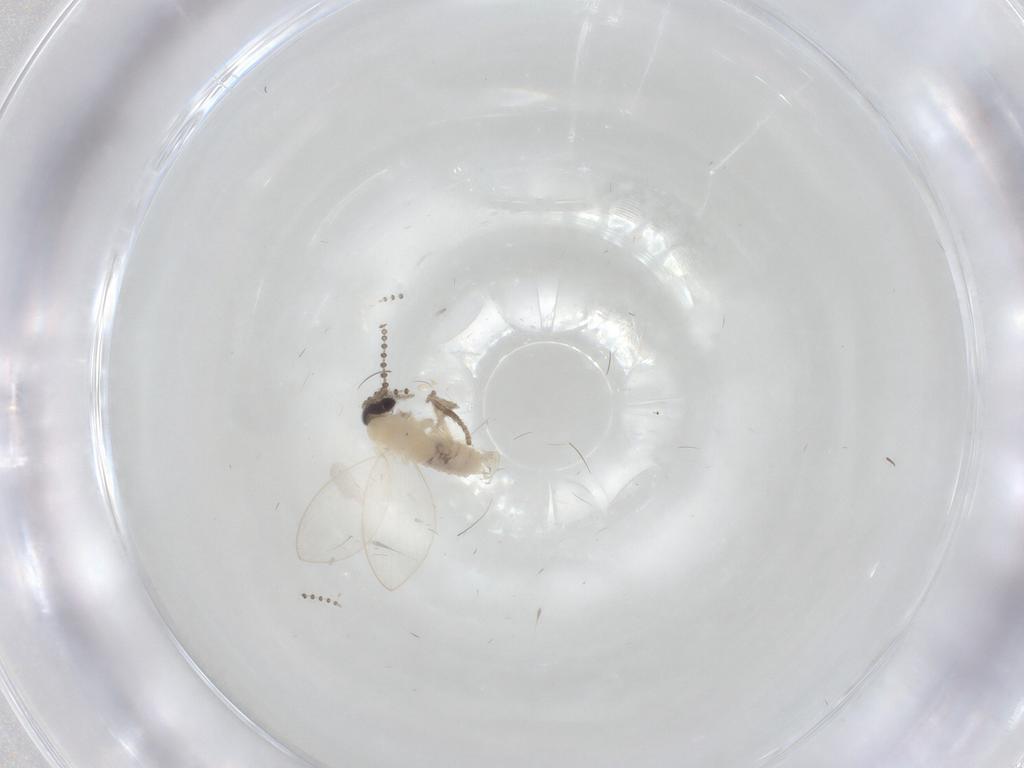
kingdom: Animalia
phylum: Arthropoda
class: Insecta
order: Diptera
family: Psychodidae
